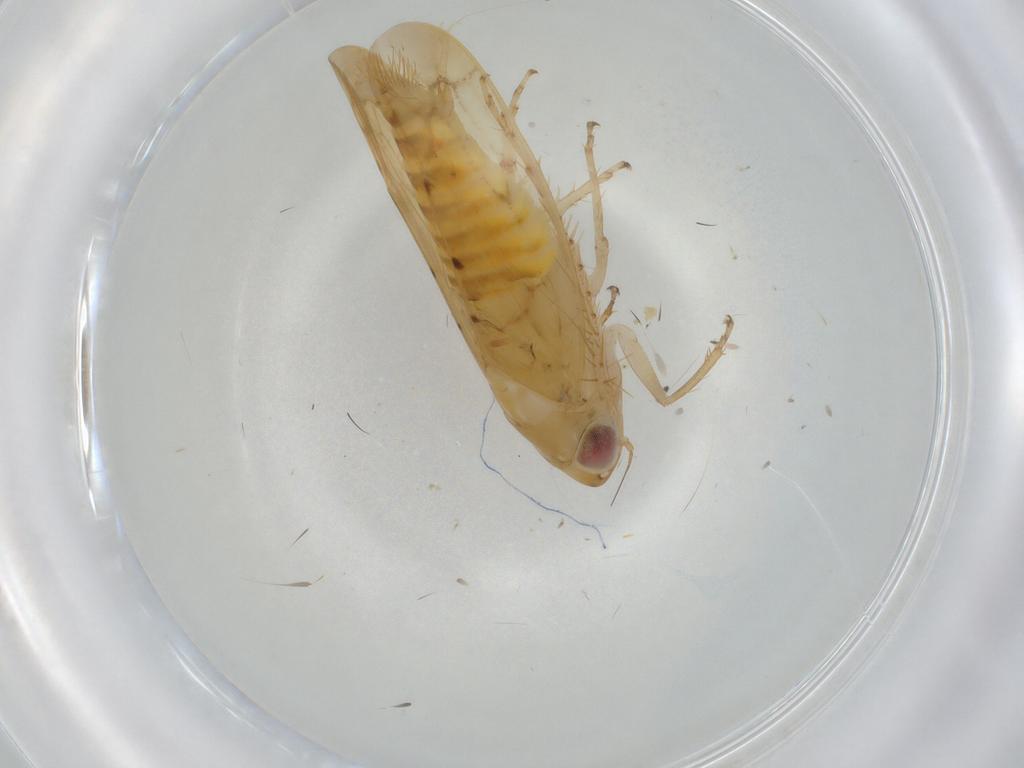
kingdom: Animalia
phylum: Arthropoda
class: Insecta
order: Hemiptera
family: Cicadellidae
